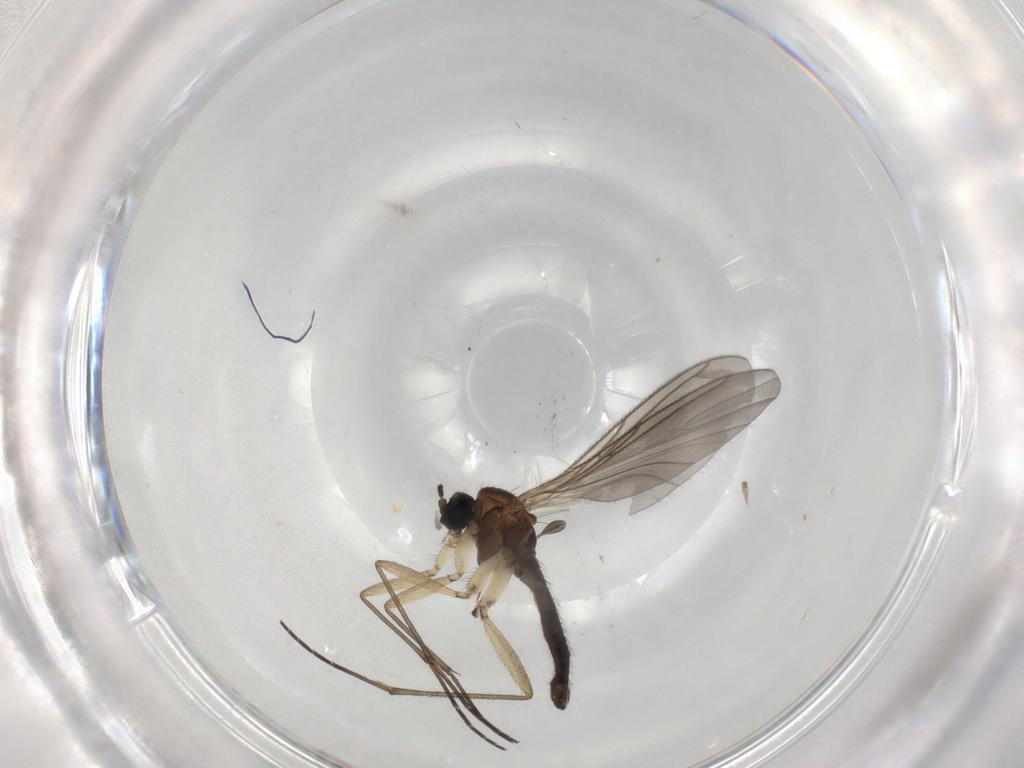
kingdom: Animalia
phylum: Arthropoda
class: Insecta
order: Diptera
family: Sciaridae
